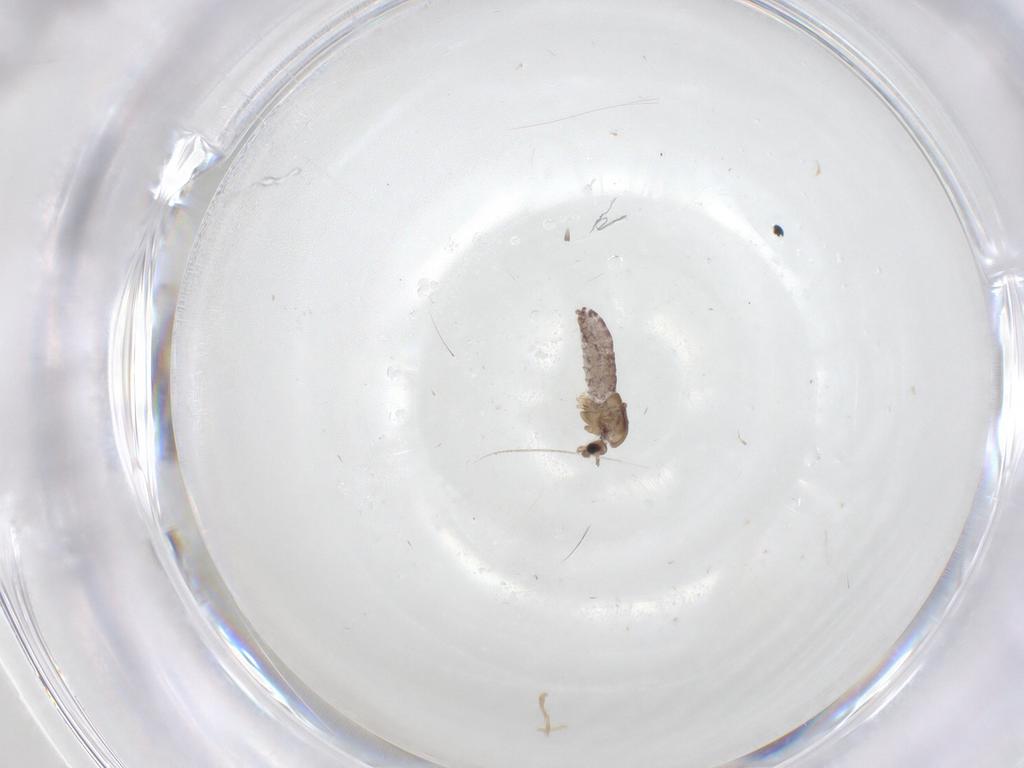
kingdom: Animalia
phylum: Arthropoda
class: Insecta
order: Diptera
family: Chironomidae
